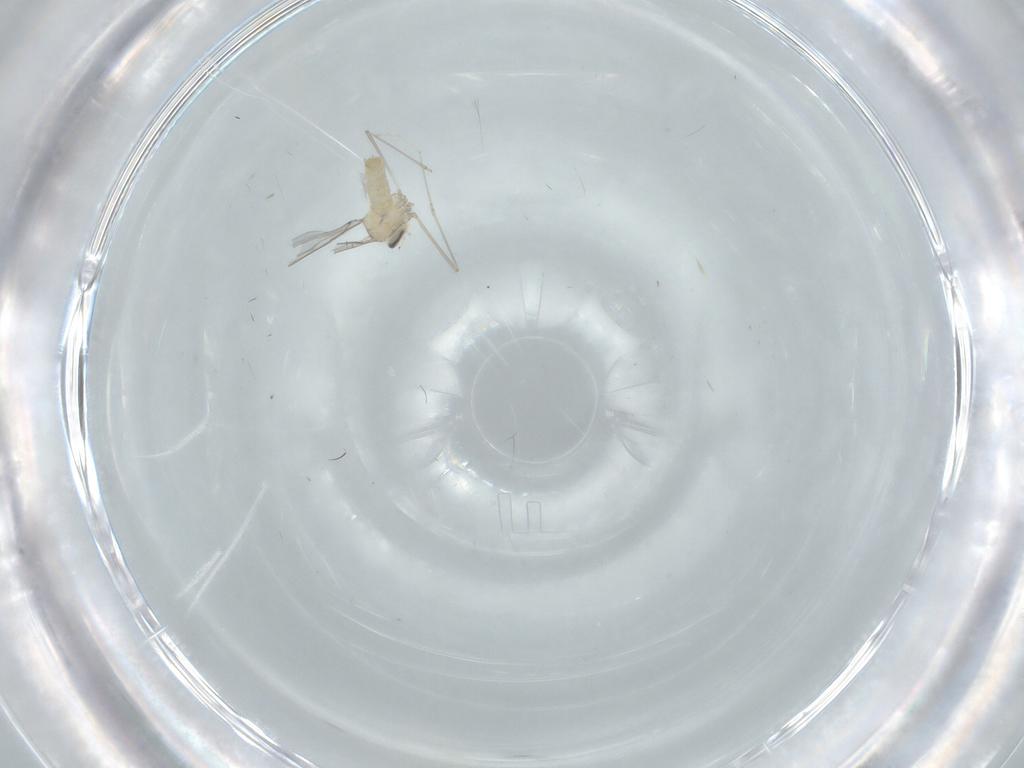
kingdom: Animalia
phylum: Arthropoda
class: Insecta
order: Diptera
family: Cecidomyiidae
